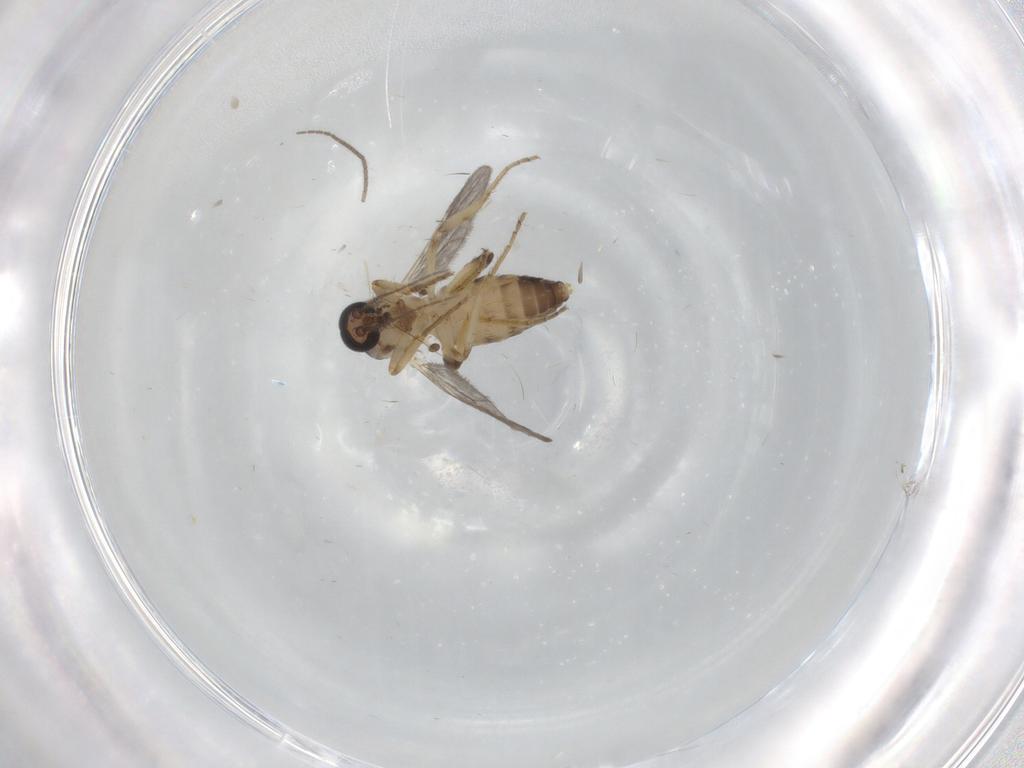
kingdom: Animalia
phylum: Arthropoda
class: Insecta
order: Diptera
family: Ceratopogonidae
